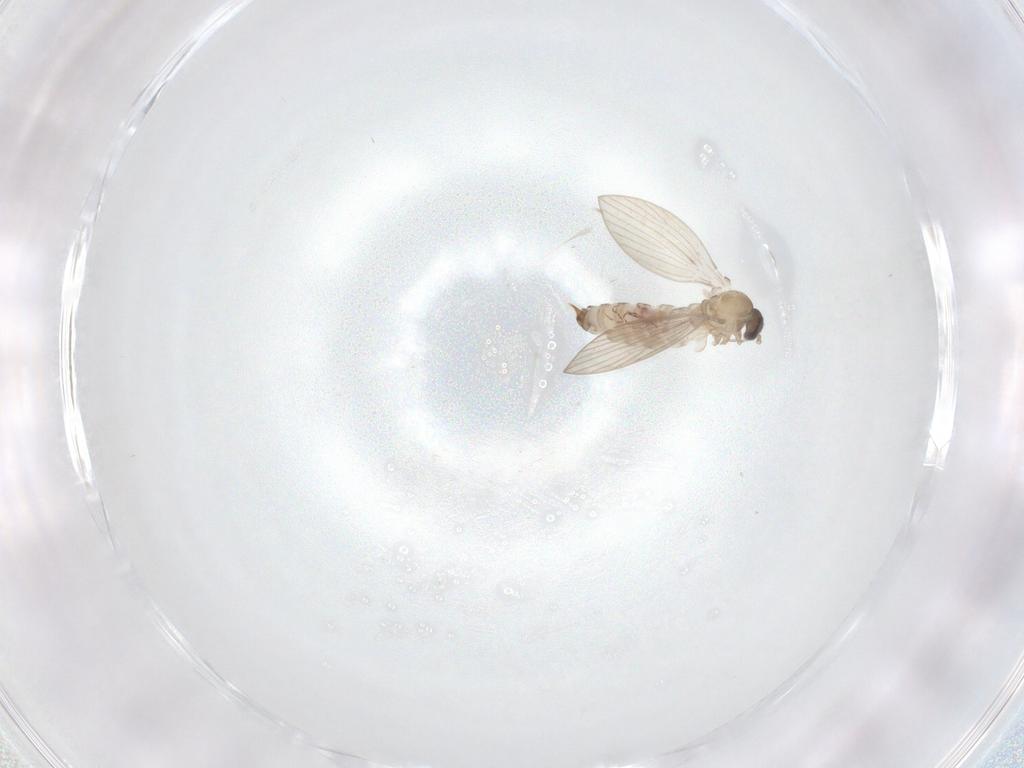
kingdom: Animalia
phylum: Arthropoda
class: Insecta
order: Diptera
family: Psychodidae
